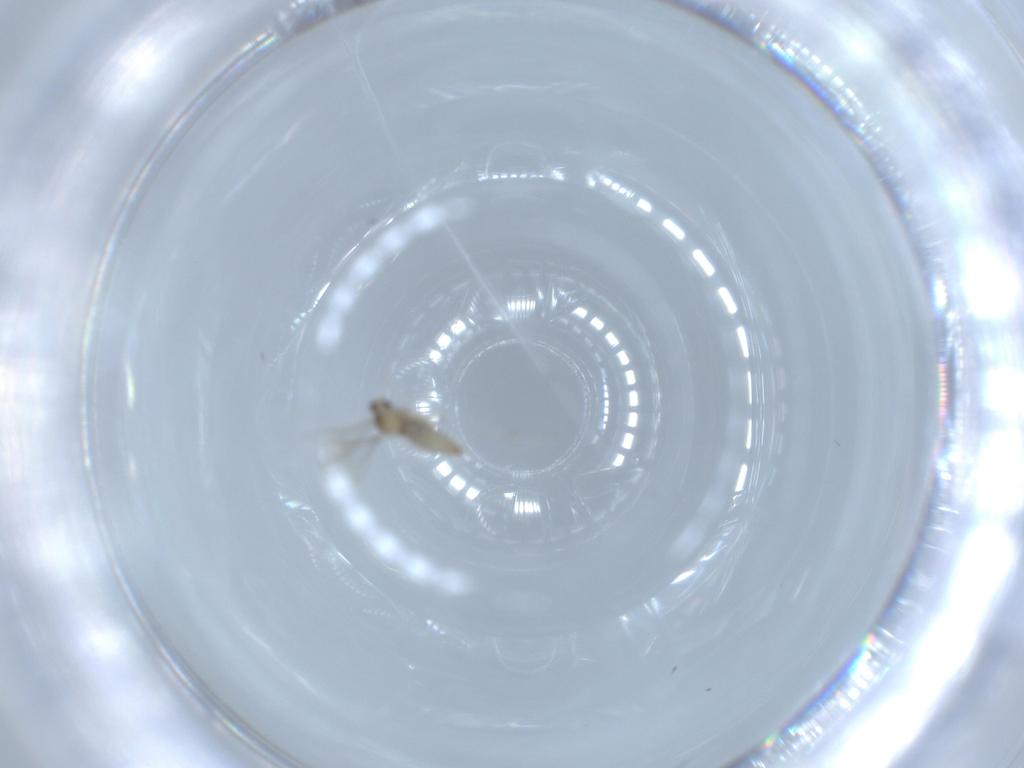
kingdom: Animalia
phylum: Arthropoda
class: Insecta
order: Diptera
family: Cecidomyiidae
